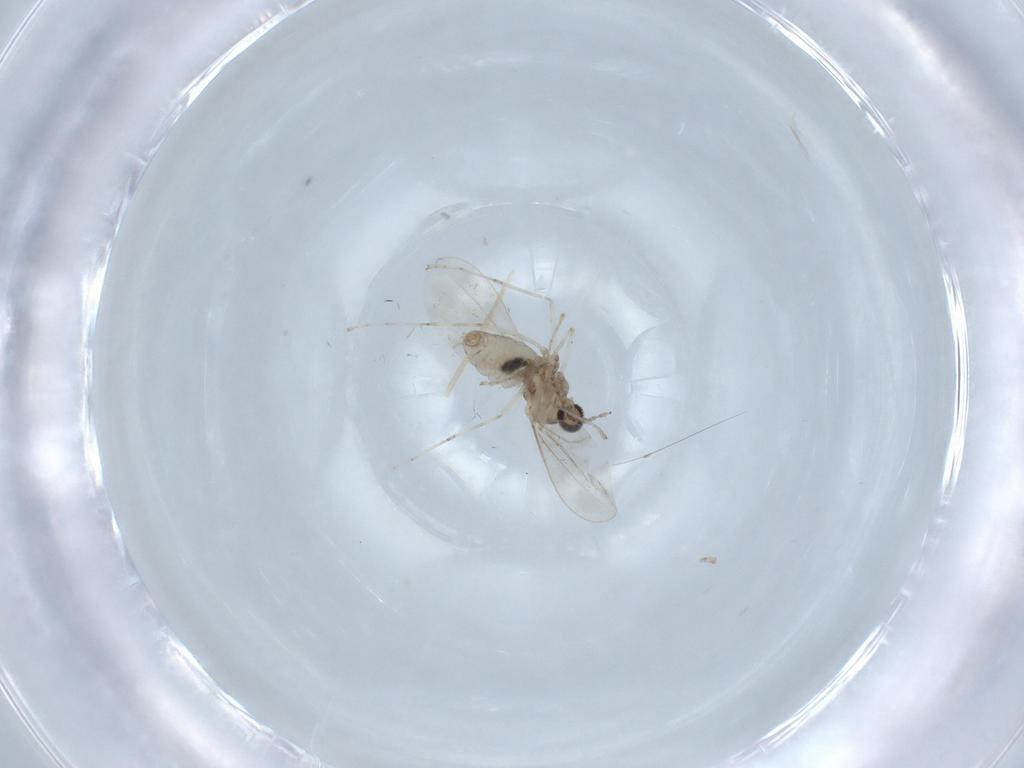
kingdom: Animalia
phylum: Arthropoda
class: Insecta
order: Diptera
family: Cecidomyiidae
